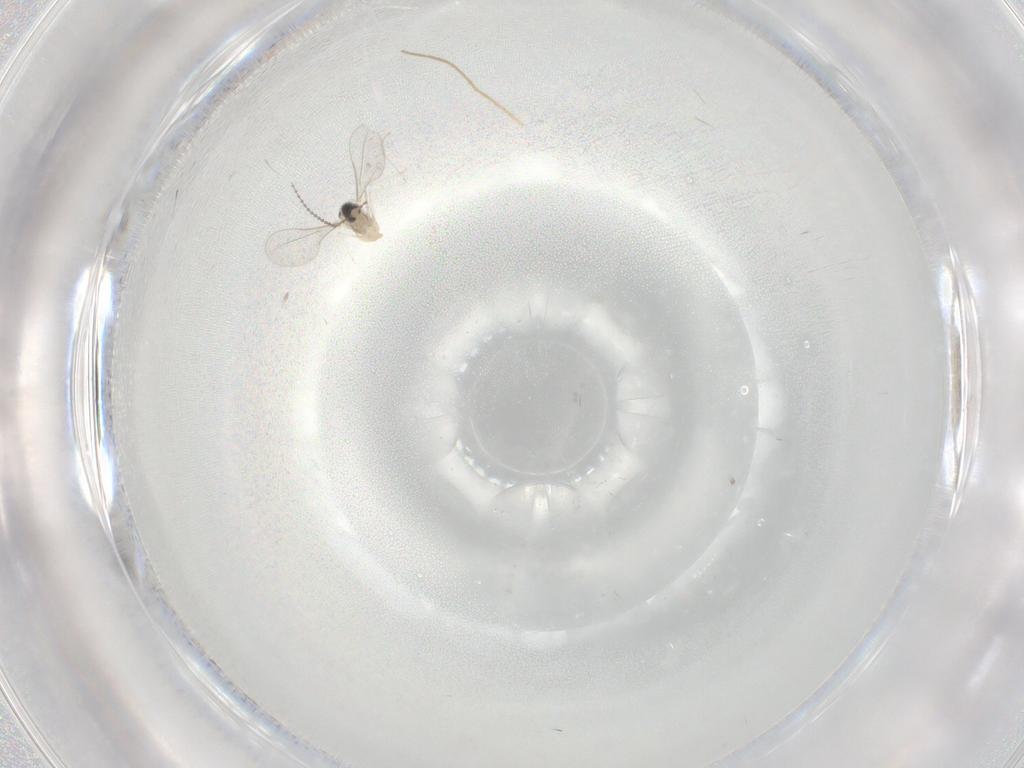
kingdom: Animalia
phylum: Arthropoda
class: Insecta
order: Diptera
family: Cecidomyiidae
